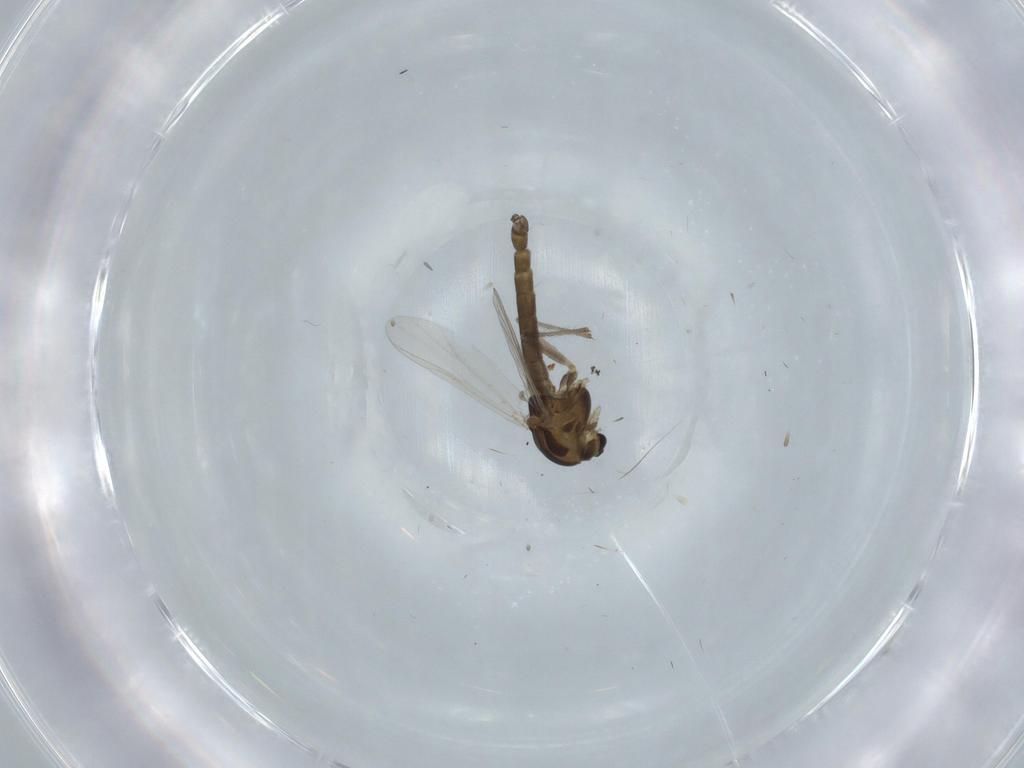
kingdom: Animalia
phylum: Arthropoda
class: Insecta
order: Diptera
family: Chironomidae
